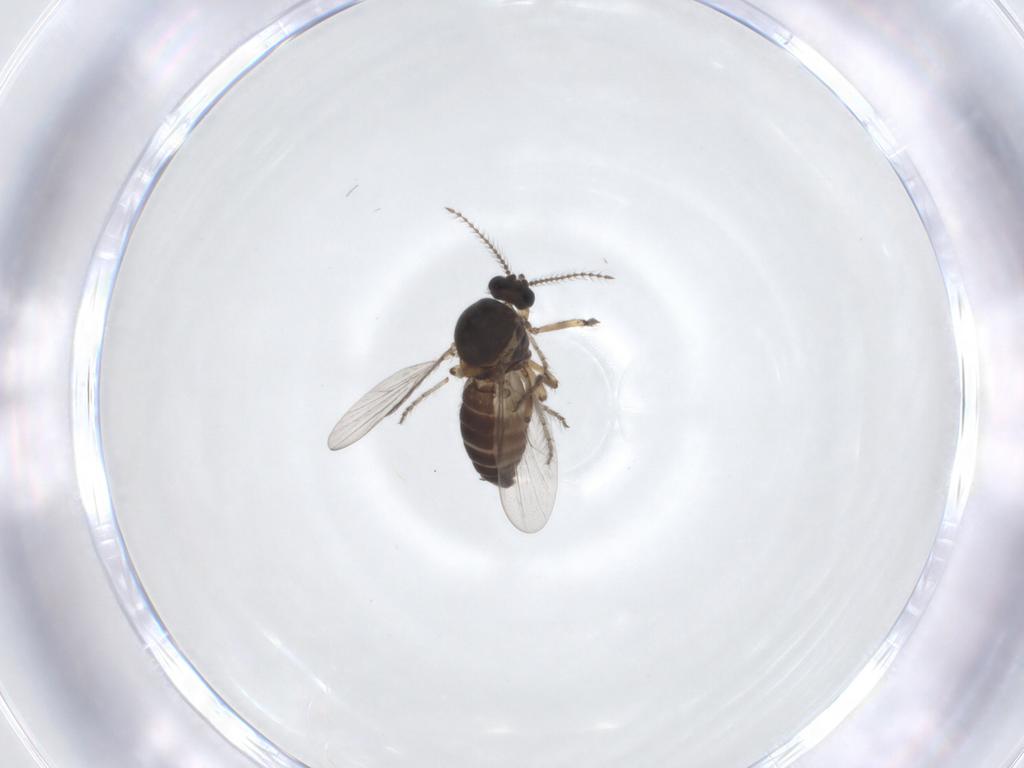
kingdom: Animalia
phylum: Arthropoda
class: Insecta
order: Diptera
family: Ceratopogonidae
